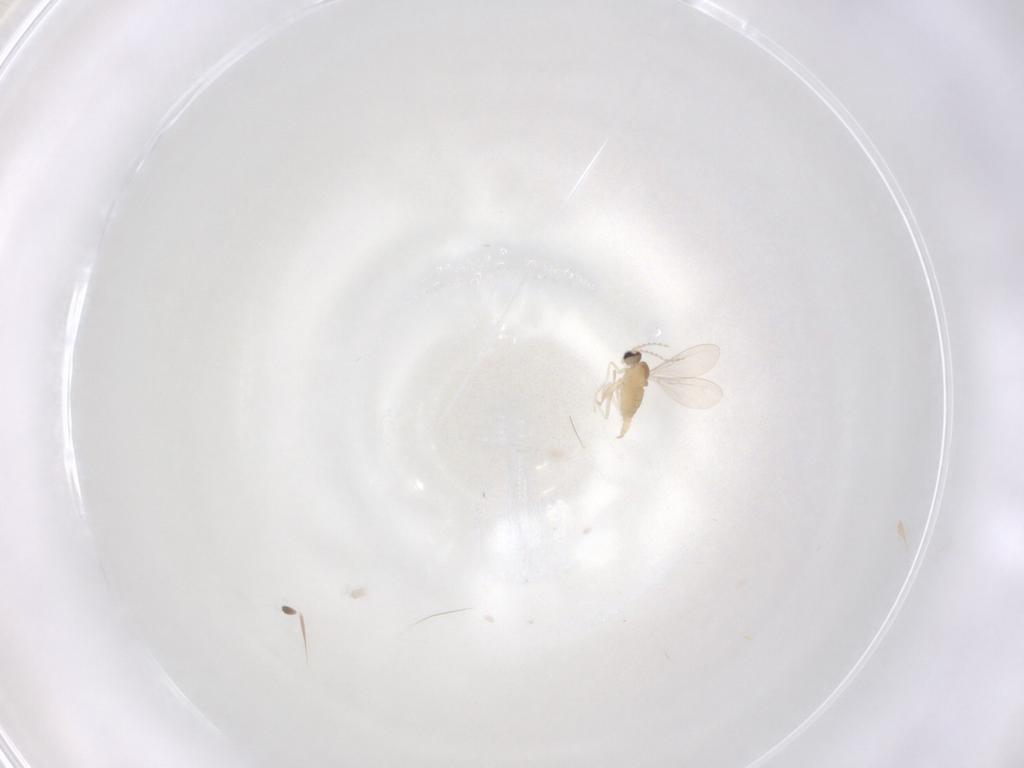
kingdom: Animalia
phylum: Arthropoda
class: Insecta
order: Diptera
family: Cecidomyiidae
